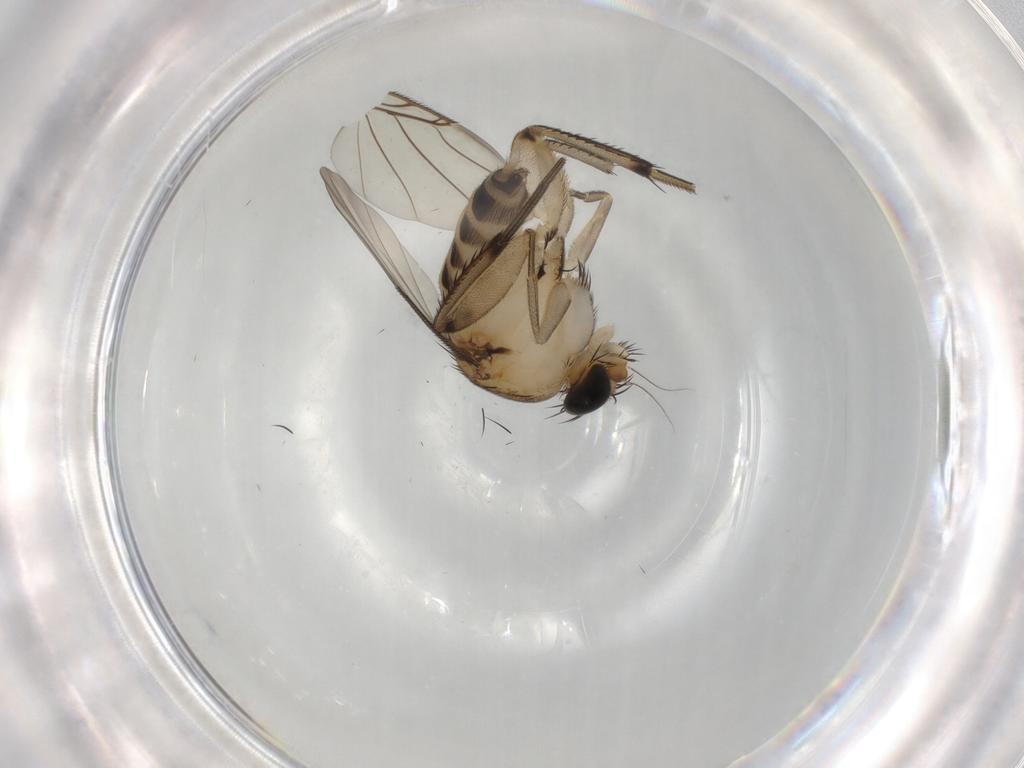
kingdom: Animalia
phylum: Arthropoda
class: Insecta
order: Diptera
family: Phoridae
